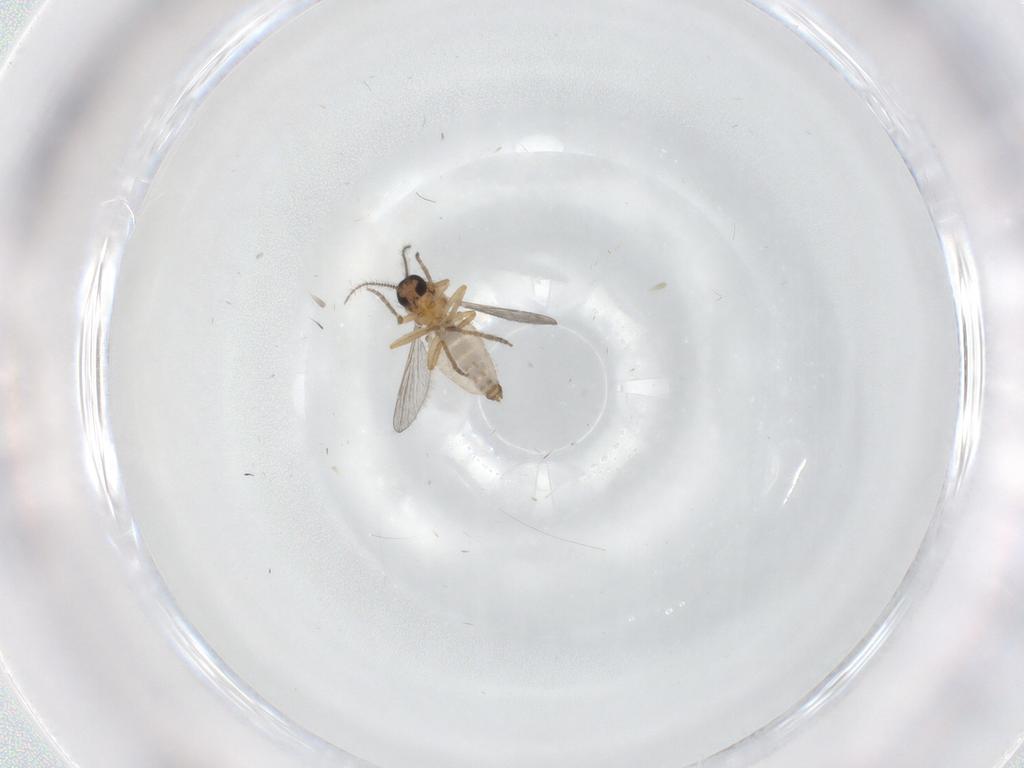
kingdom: Animalia
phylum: Arthropoda
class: Insecta
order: Diptera
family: Ceratopogonidae
